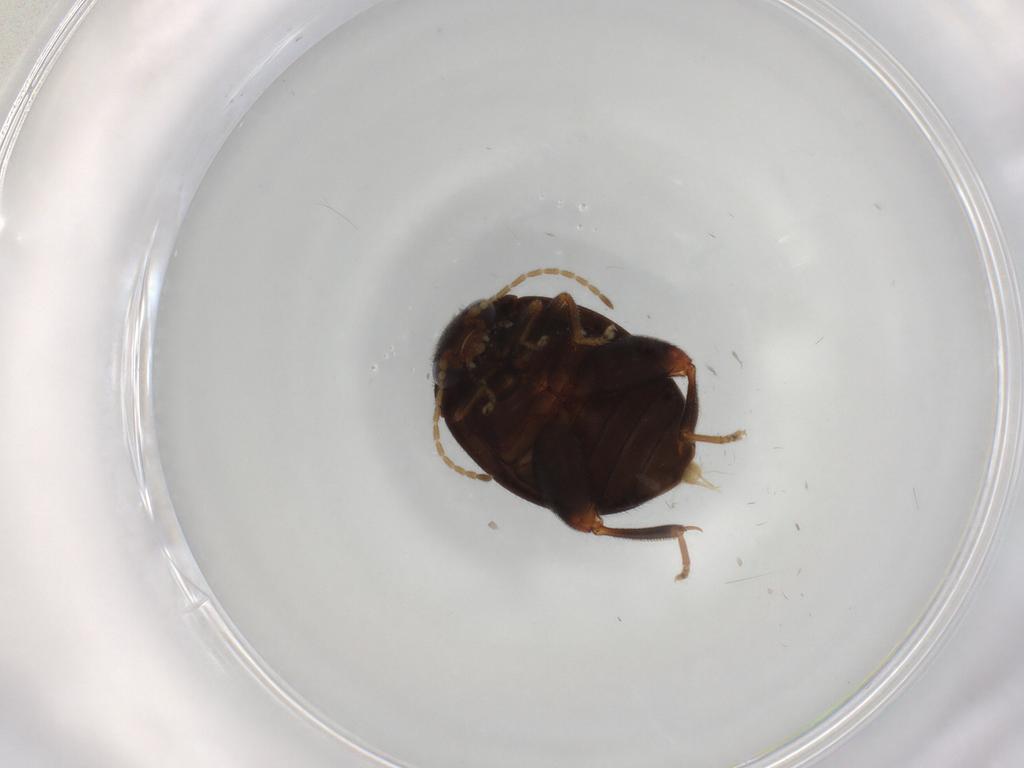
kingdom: Animalia
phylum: Arthropoda
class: Insecta
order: Coleoptera
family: Scirtidae
